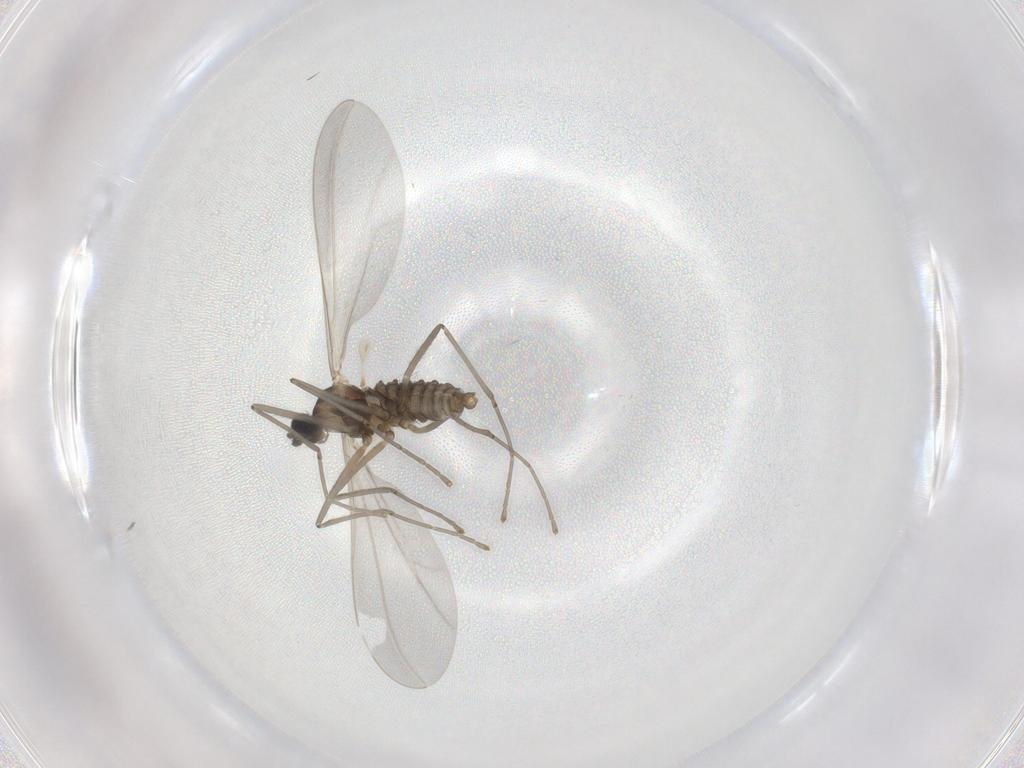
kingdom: Animalia
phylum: Arthropoda
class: Insecta
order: Diptera
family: Cecidomyiidae
